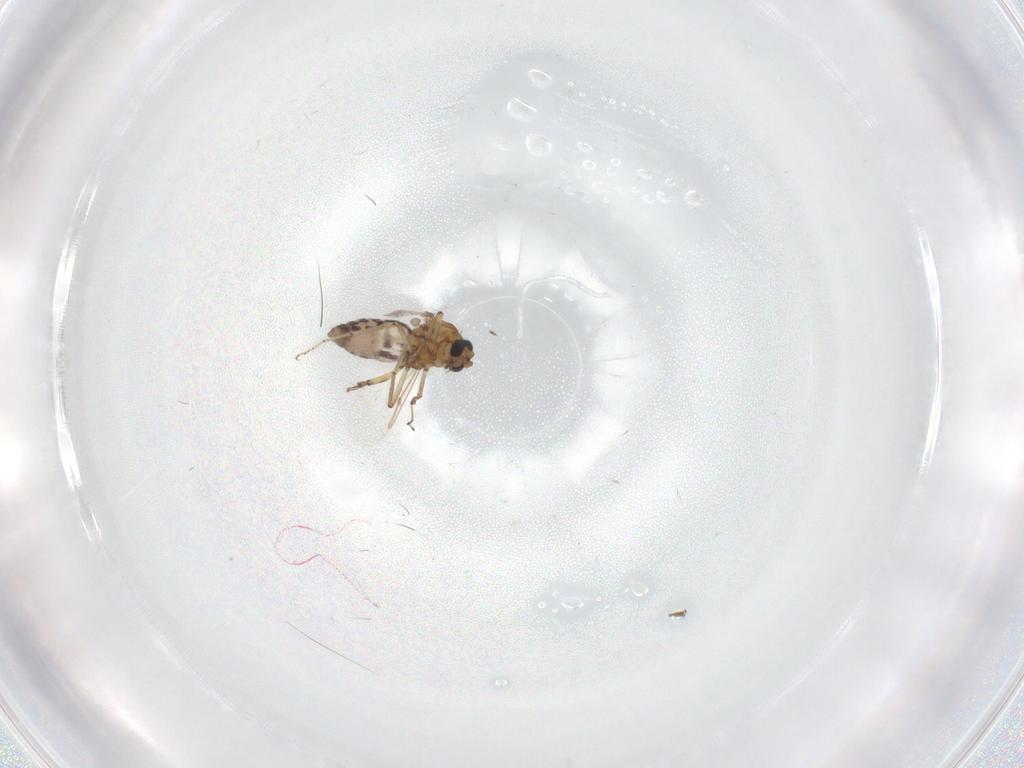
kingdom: Animalia
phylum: Arthropoda
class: Insecta
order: Diptera
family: Ceratopogonidae
